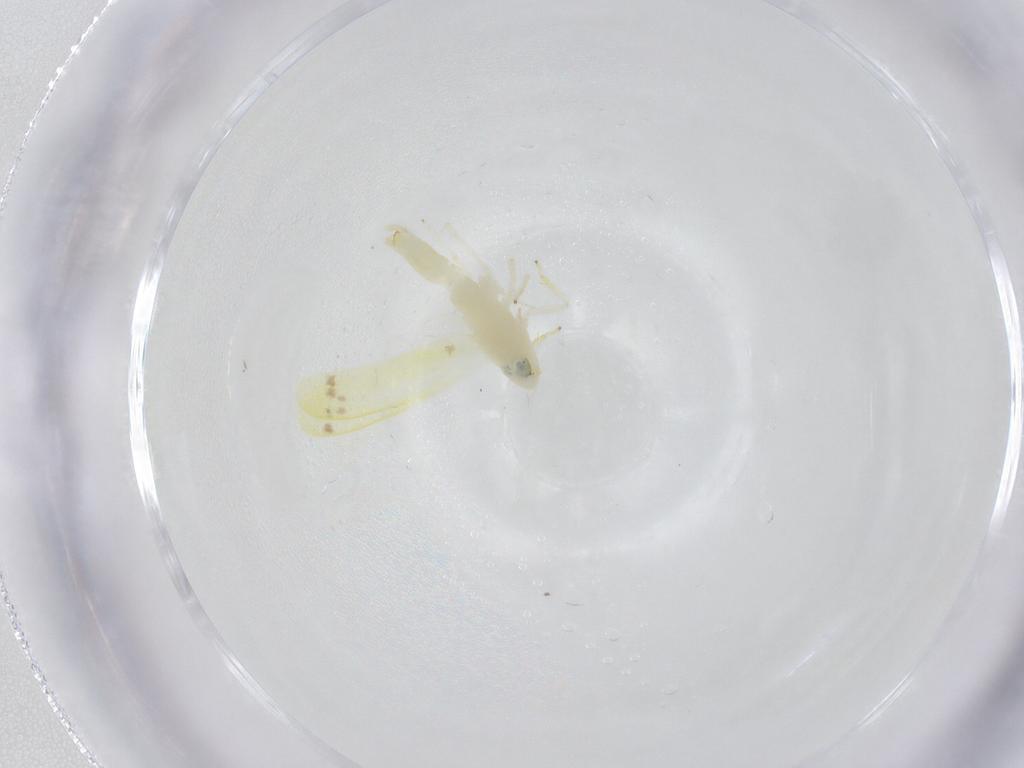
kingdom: Animalia
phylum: Arthropoda
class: Insecta
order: Hemiptera
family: Cicadellidae
